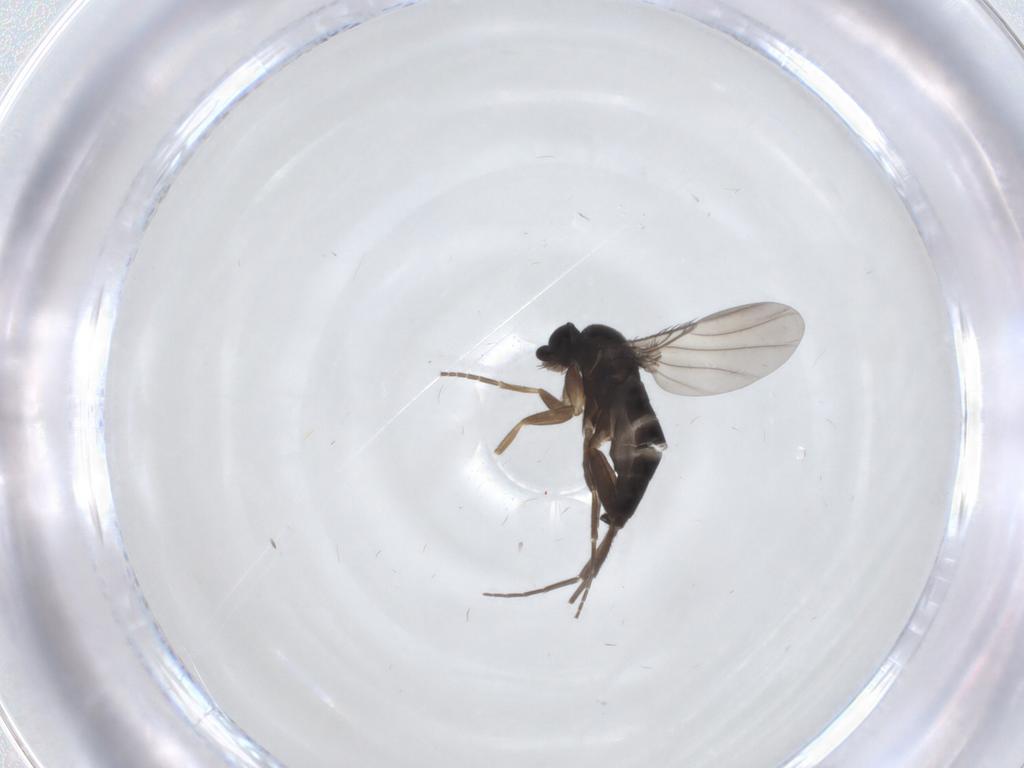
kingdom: Animalia
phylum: Arthropoda
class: Insecta
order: Diptera
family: Phoridae
